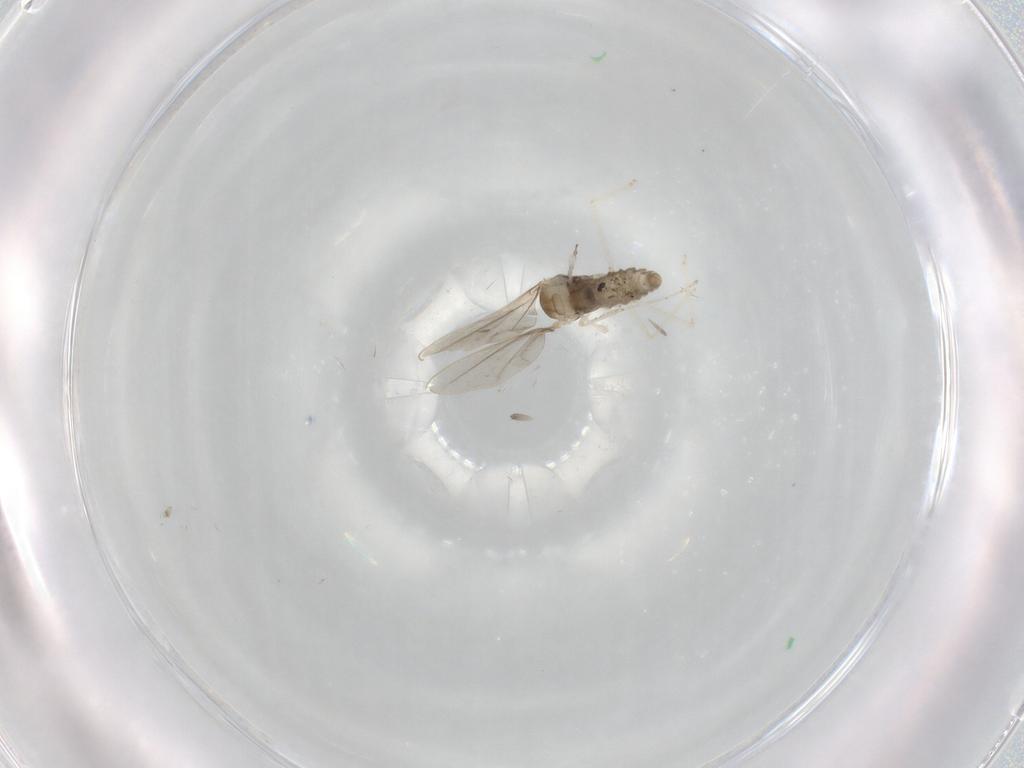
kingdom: Animalia
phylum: Arthropoda
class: Insecta
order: Diptera
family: Cecidomyiidae
